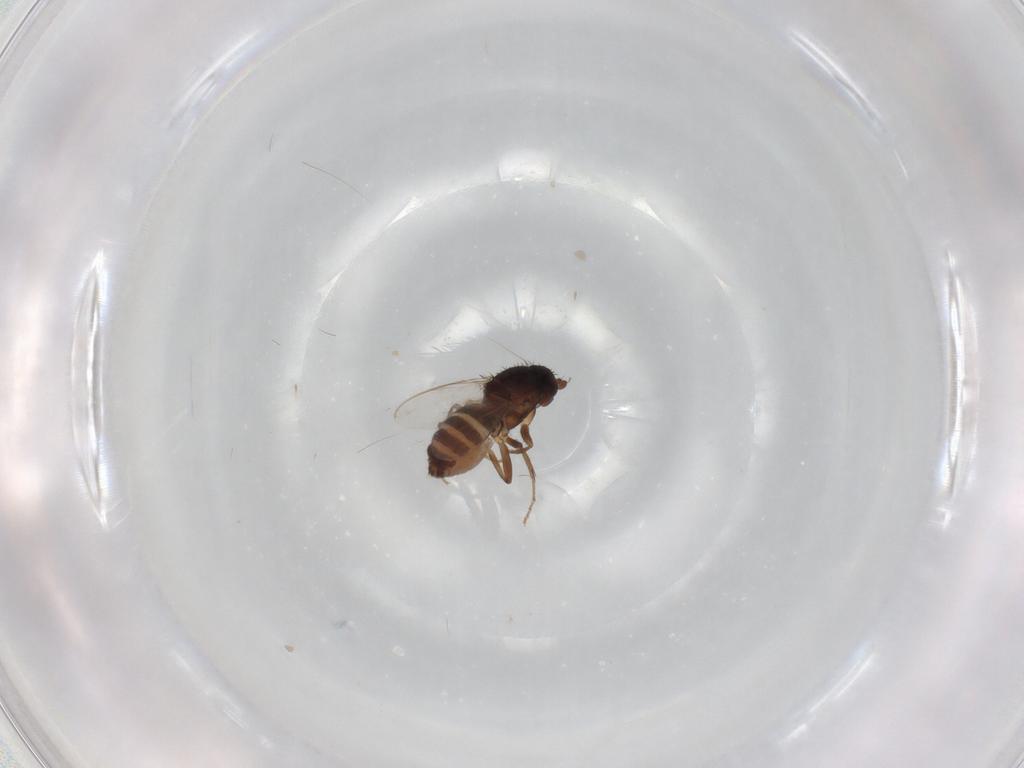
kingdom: Animalia
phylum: Arthropoda
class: Insecta
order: Diptera
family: Sphaeroceridae
